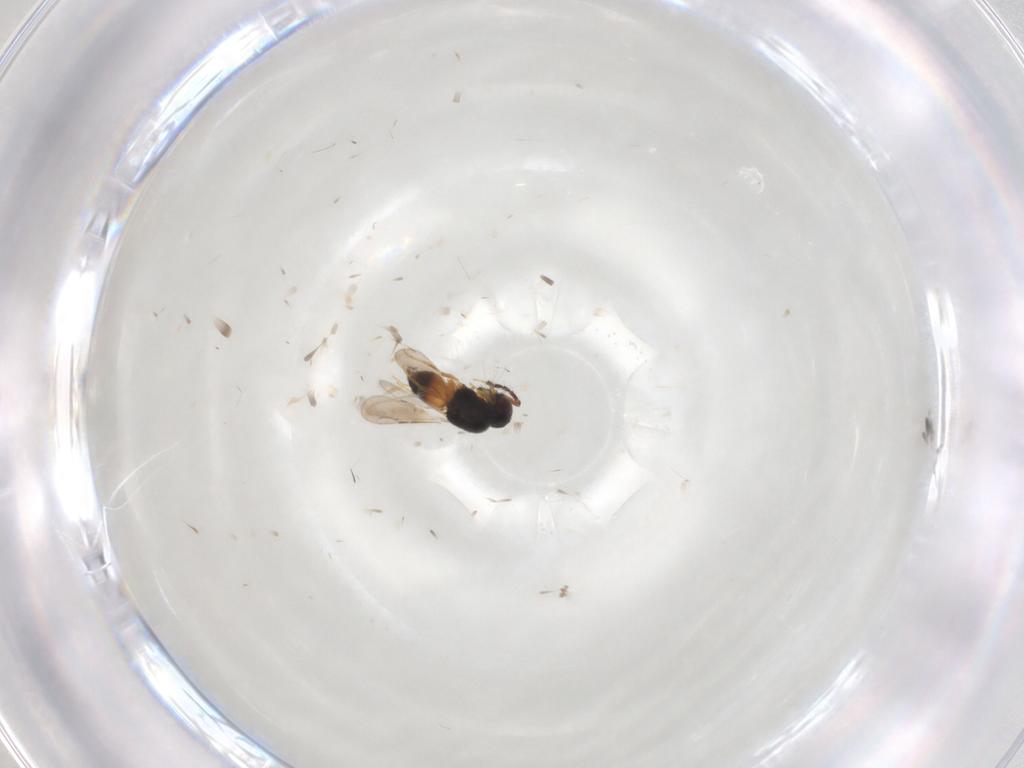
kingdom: Animalia
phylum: Arthropoda
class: Insecta
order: Hymenoptera
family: Formicidae
